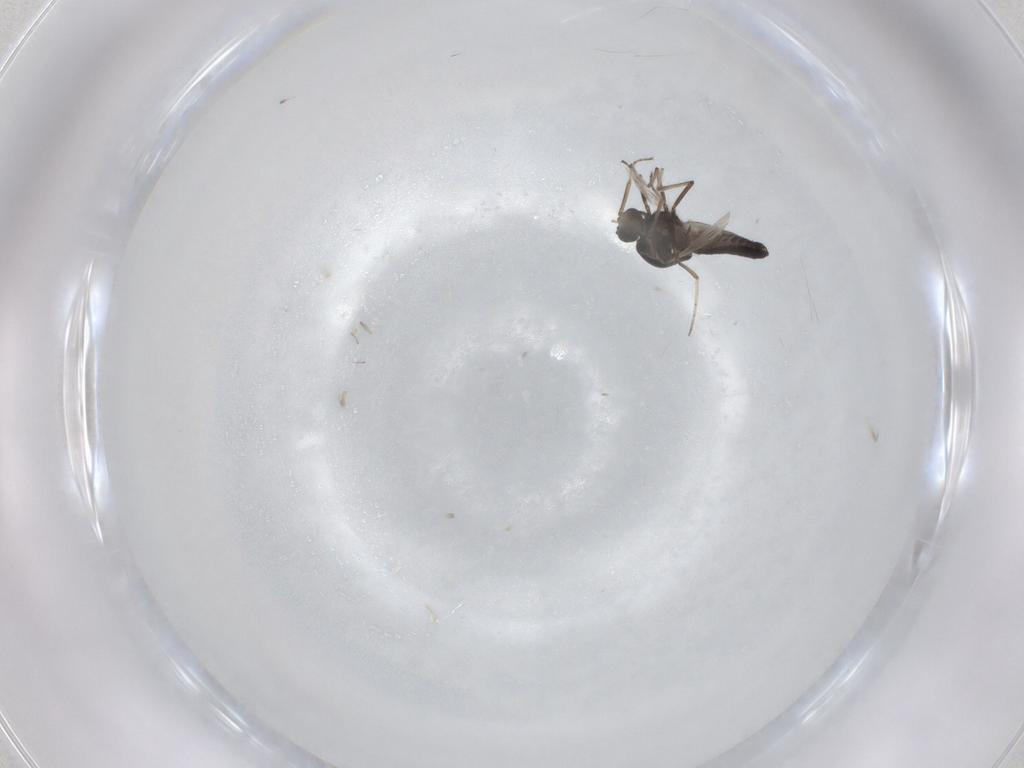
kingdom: Animalia
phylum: Arthropoda
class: Insecta
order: Diptera
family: Ceratopogonidae
